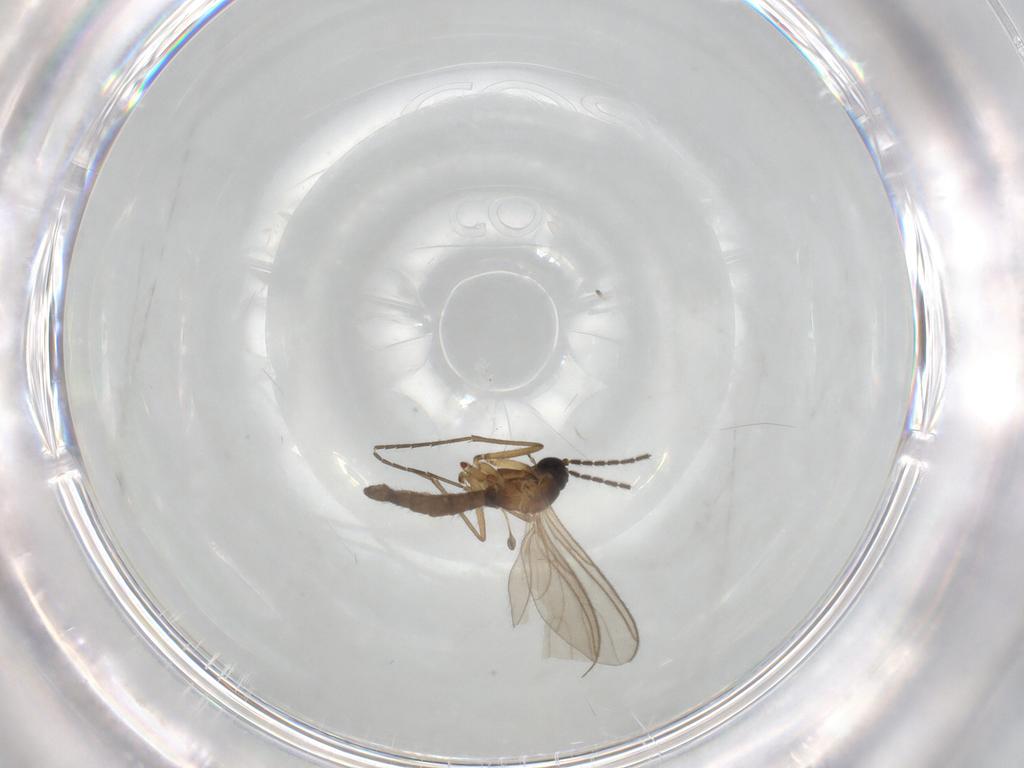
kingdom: Animalia
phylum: Arthropoda
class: Insecta
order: Diptera
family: Sciaridae
